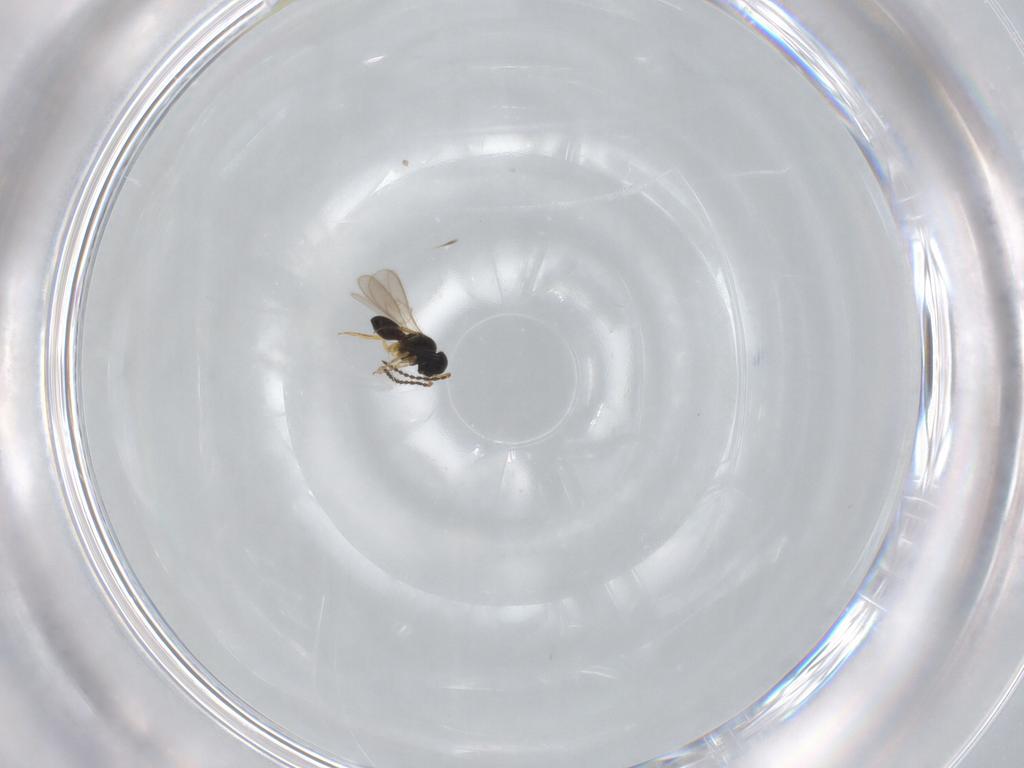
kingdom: Animalia
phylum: Arthropoda
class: Insecta
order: Hymenoptera
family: Scelionidae
